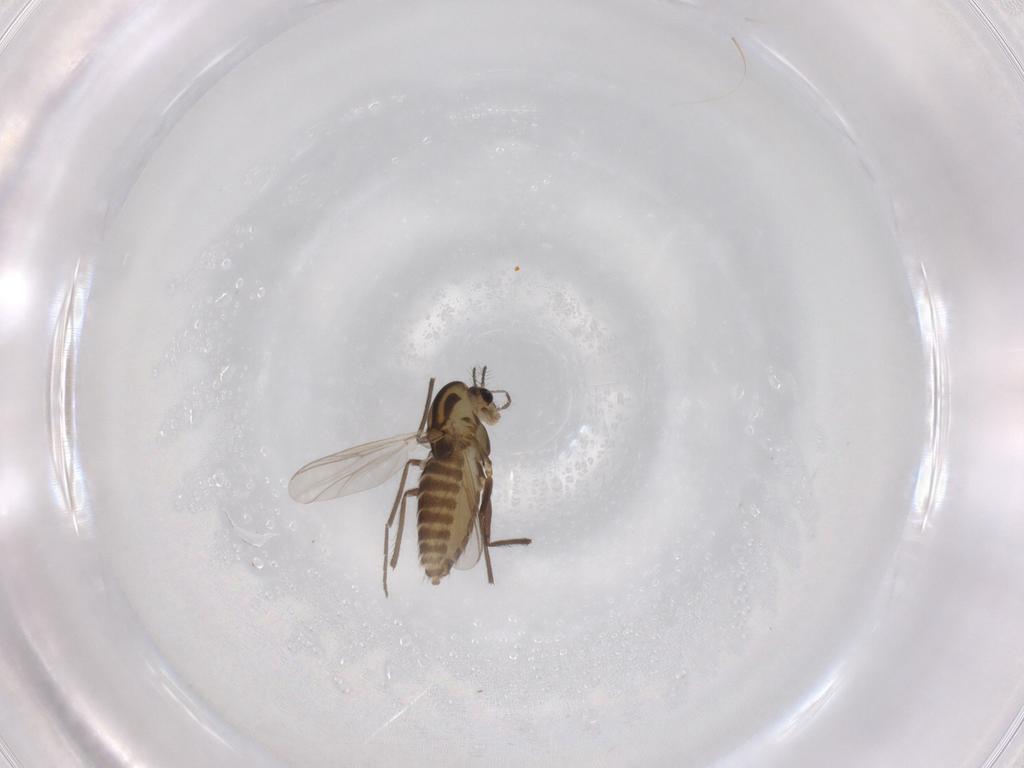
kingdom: Animalia
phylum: Arthropoda
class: Insecta
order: Diptera
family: Chironomidae
